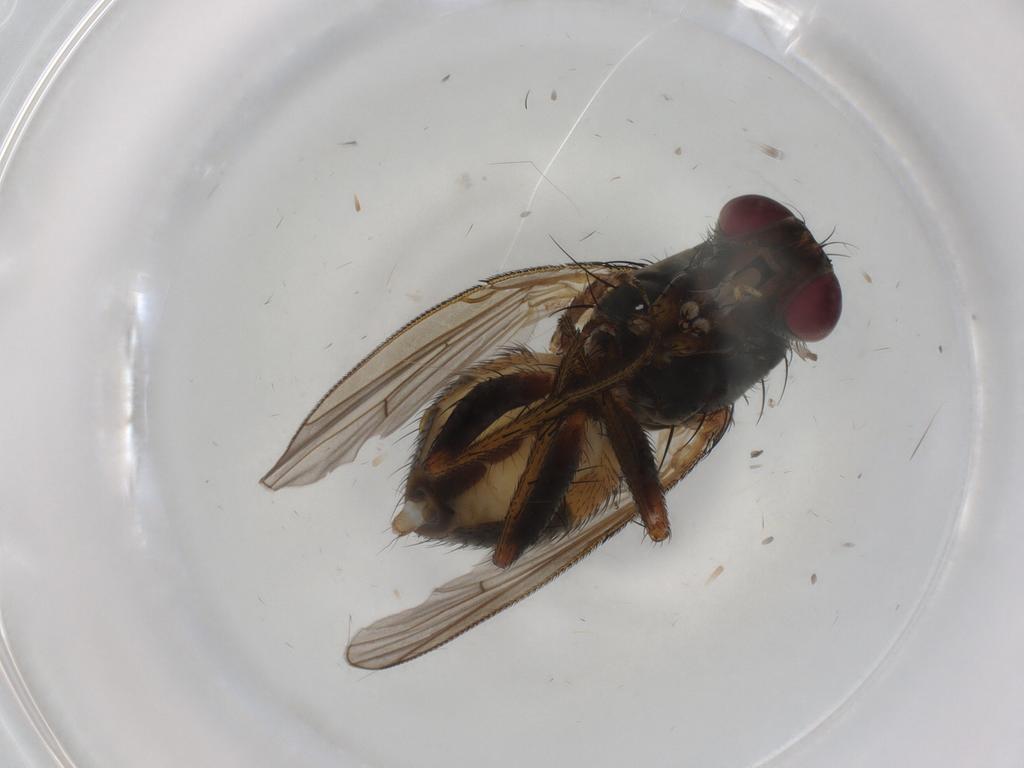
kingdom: Animalia
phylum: Arthropoda
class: Insecta
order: Diptera
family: Muscidae
